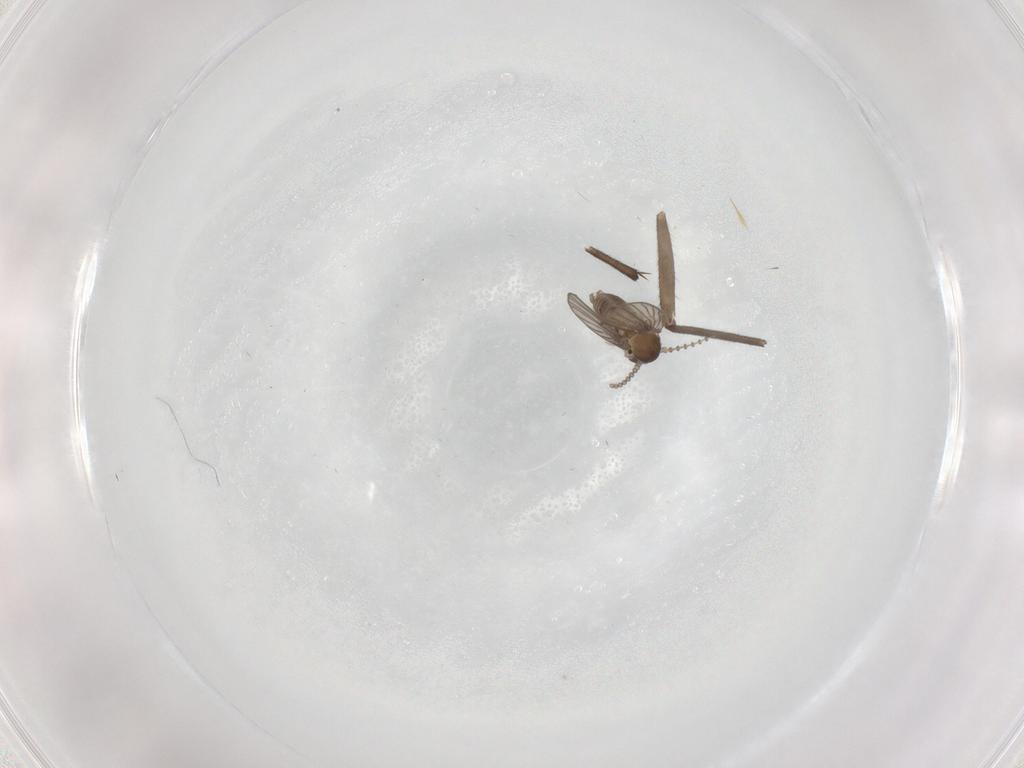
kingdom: Animalia
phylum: Arthropoda
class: Insecta
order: Diptera
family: Sciaridae
